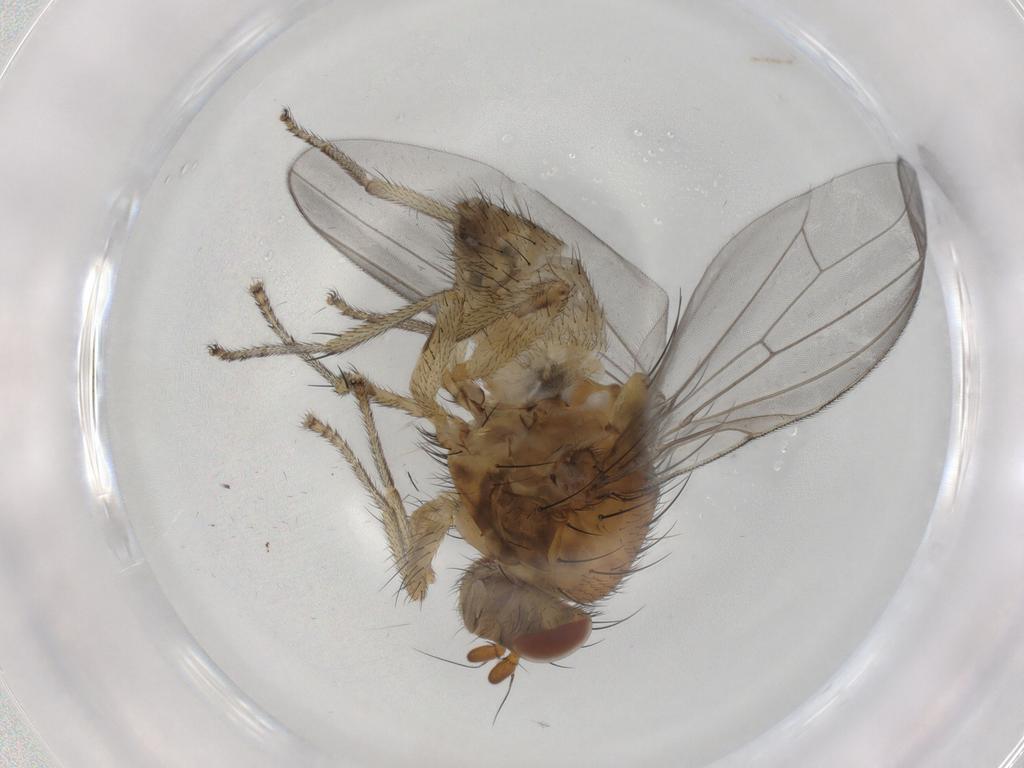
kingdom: Animalia
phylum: Arthropoda
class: Insecta
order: Diptera
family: Lauxaniidae
